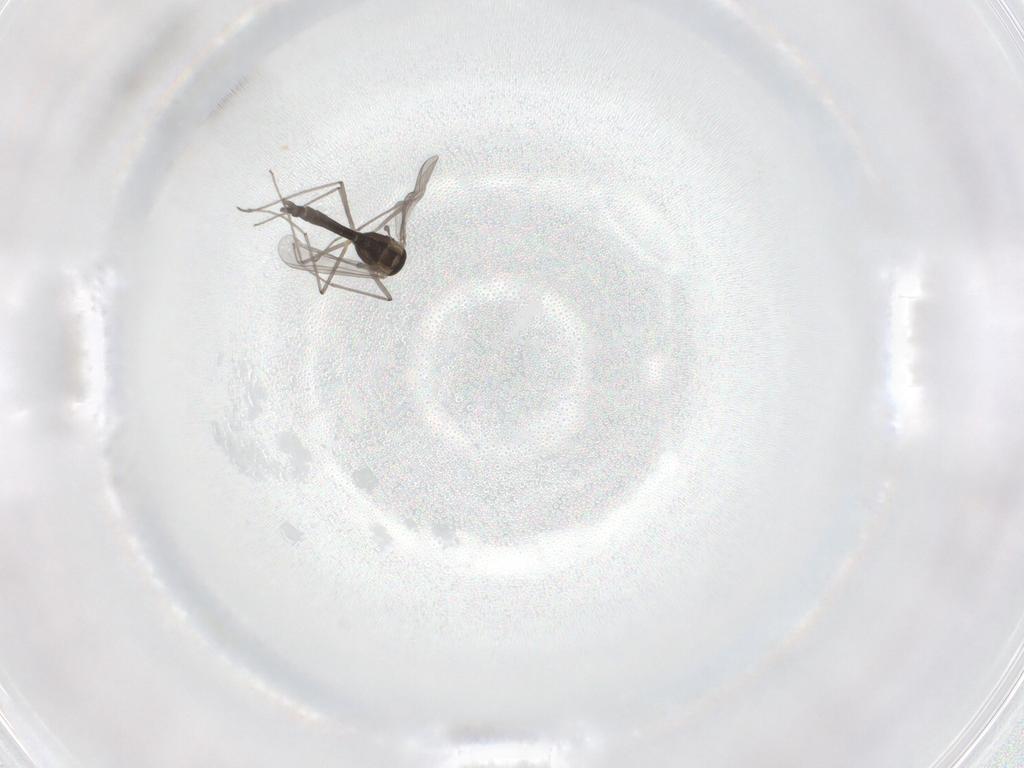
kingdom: Animalia
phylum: Arthropoda
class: Insecta
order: Diptera
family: Chironomidae
